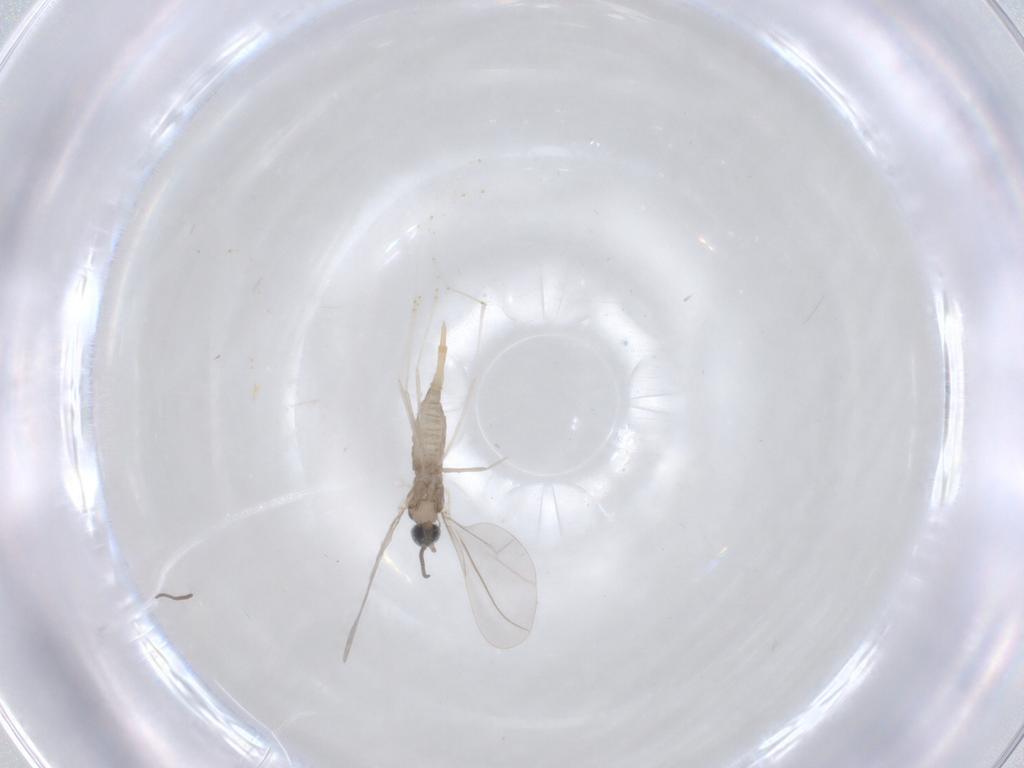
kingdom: Animalia
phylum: Arthropoda
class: Insecta
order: Diptera
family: Cecidomyiidae
